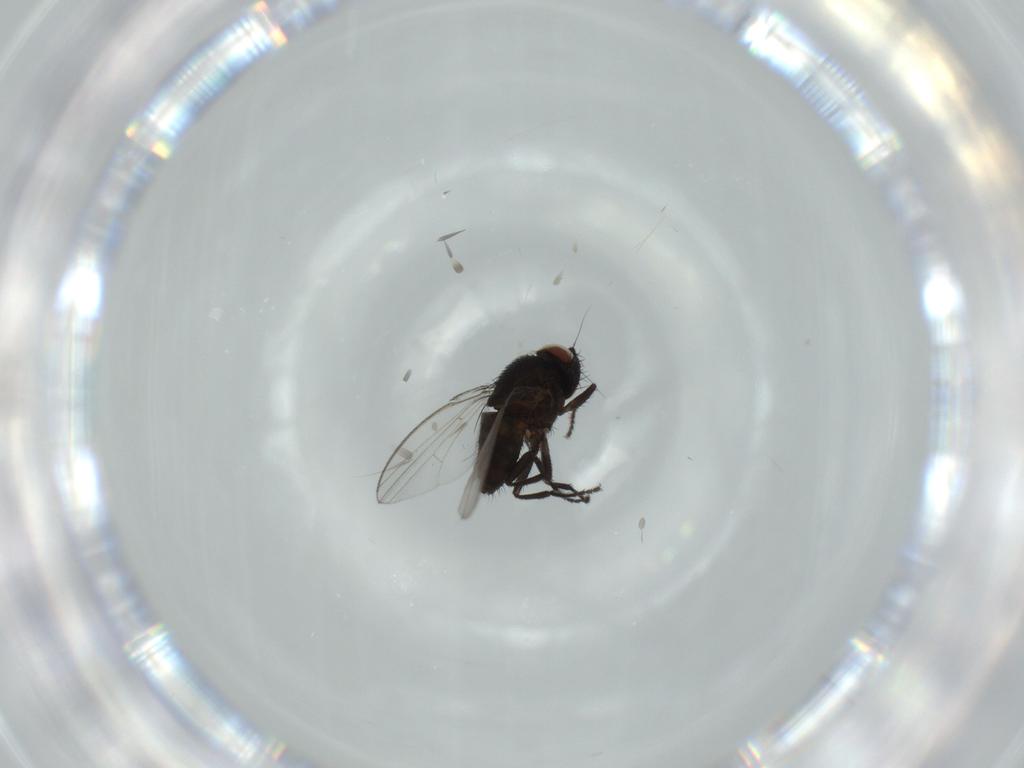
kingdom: Animalia
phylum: Arthropoda
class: Insecta
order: Diptera
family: Milichiidae
